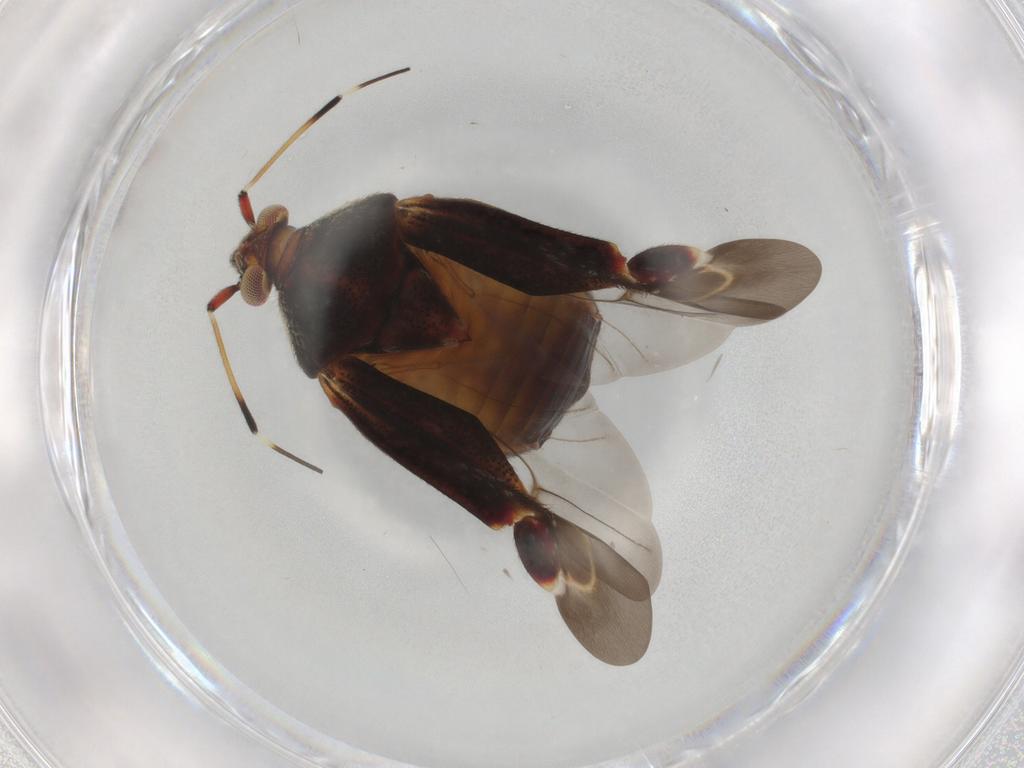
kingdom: Animalia
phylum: Arthropoda
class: Insecta
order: Hemiptera
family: Miridae
